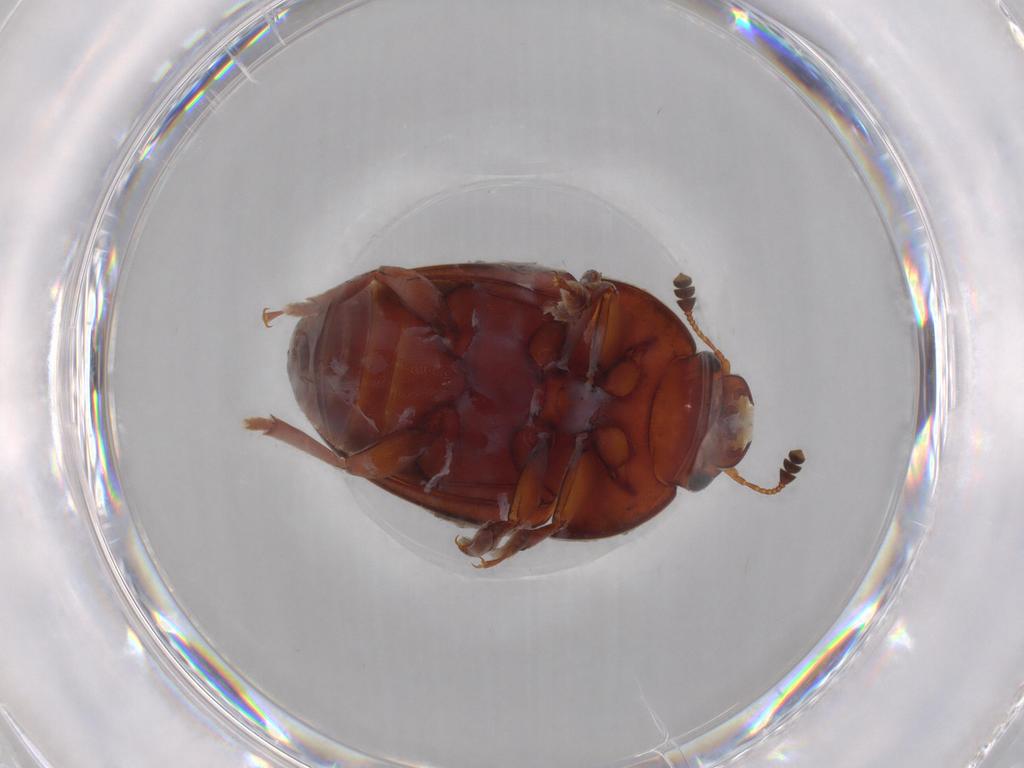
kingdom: Animalia
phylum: Arthropoda
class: Insecta
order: Coleoptera
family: Nitidulidae
